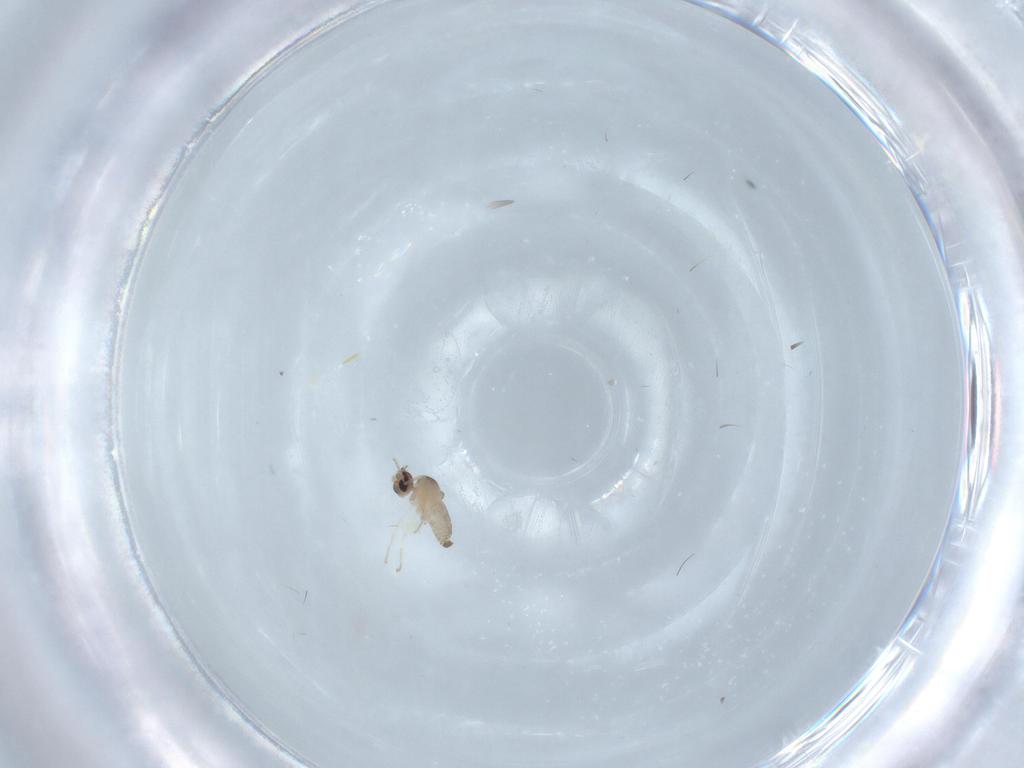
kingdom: Animalia
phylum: Arthropoda
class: Insecta
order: Diptera
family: Cecidomyiidae
